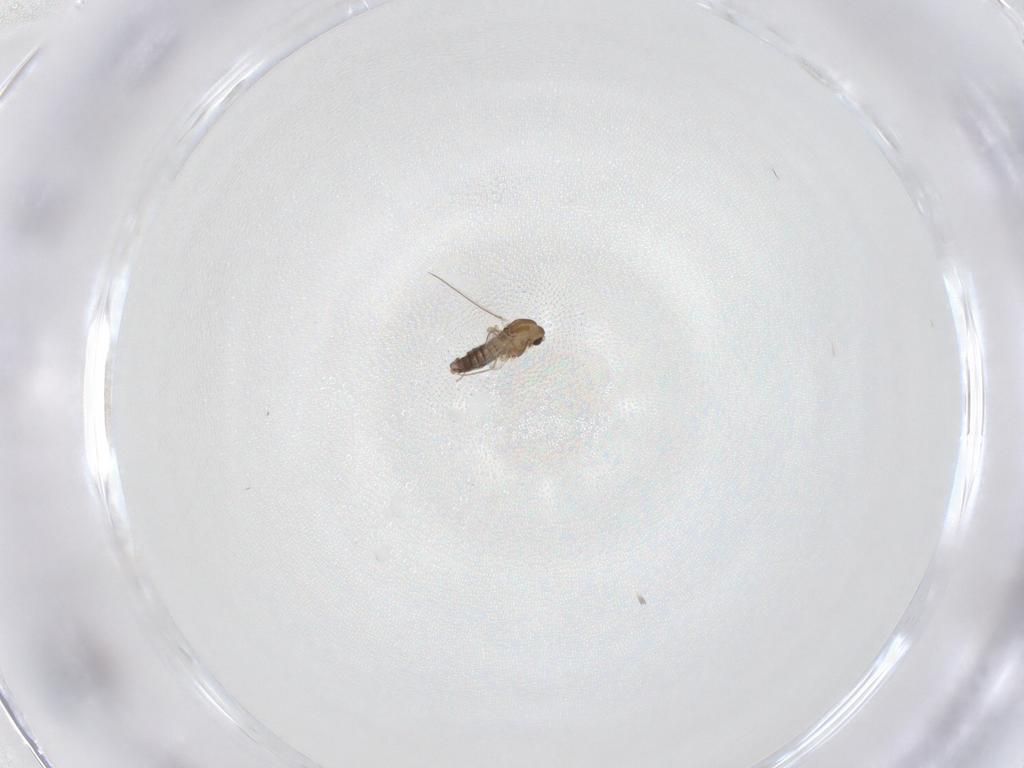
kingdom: Animalia
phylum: Arthropoda
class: Insecta
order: Diptera
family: Chironomidae
